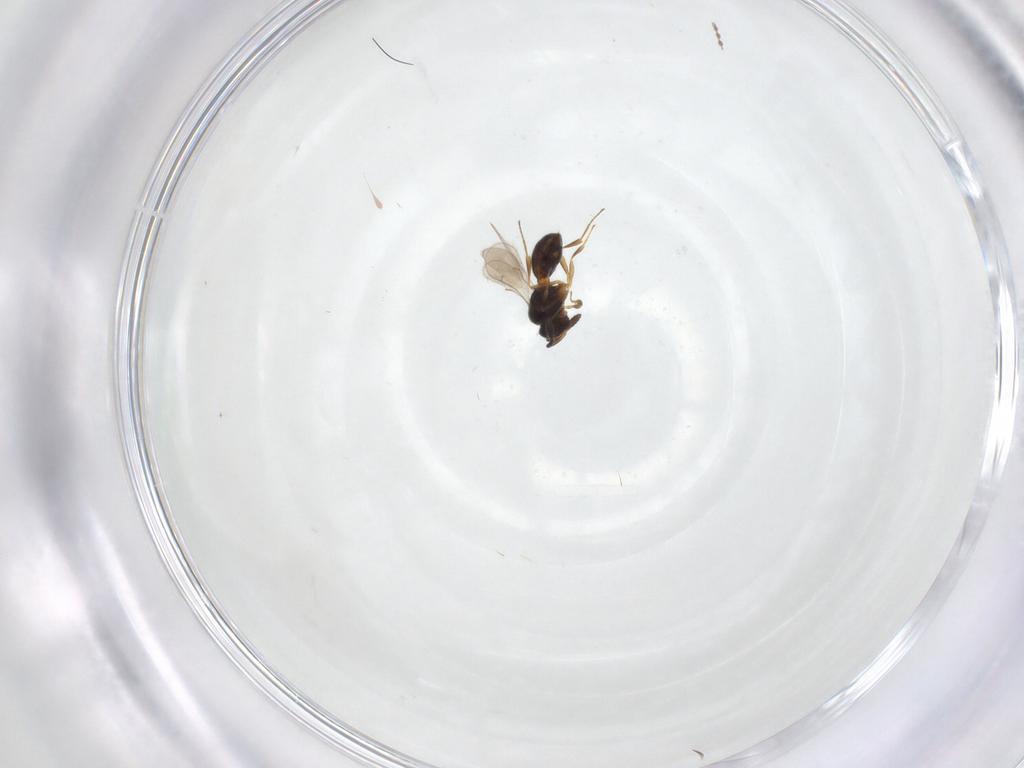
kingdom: Animalia
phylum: Arthropoda
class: Insecta
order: Hymenoptera
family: Scelionidae
